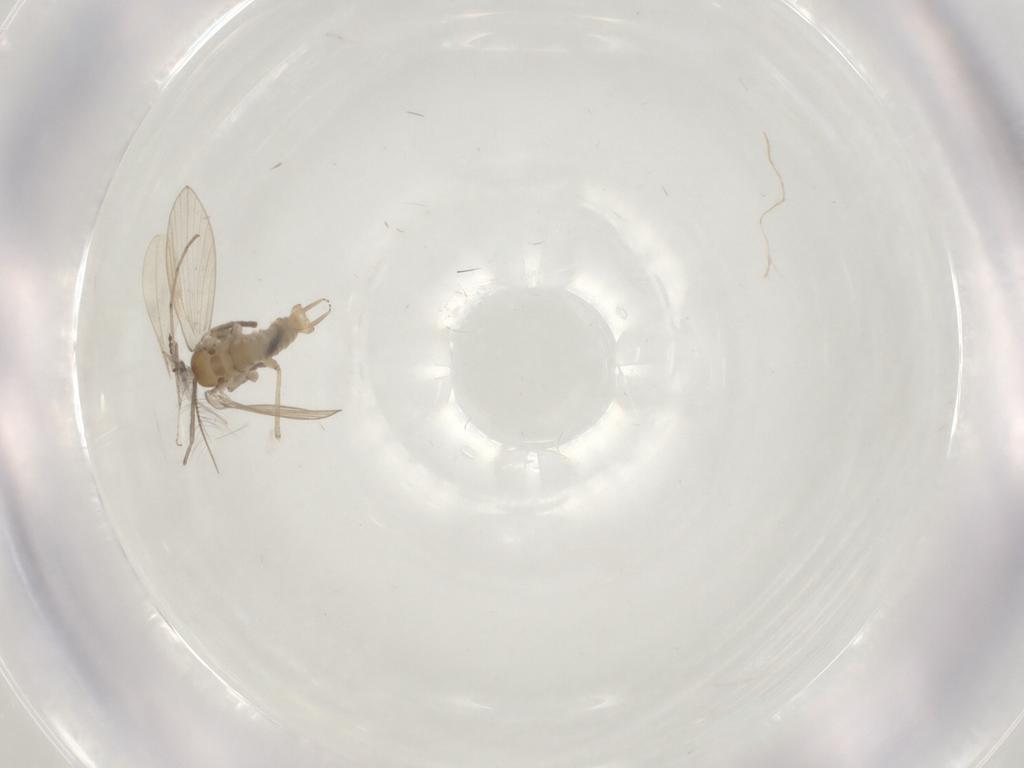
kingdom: Animalia
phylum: Arthropoda
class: Insecta
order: Diptera
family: Psychodidae
